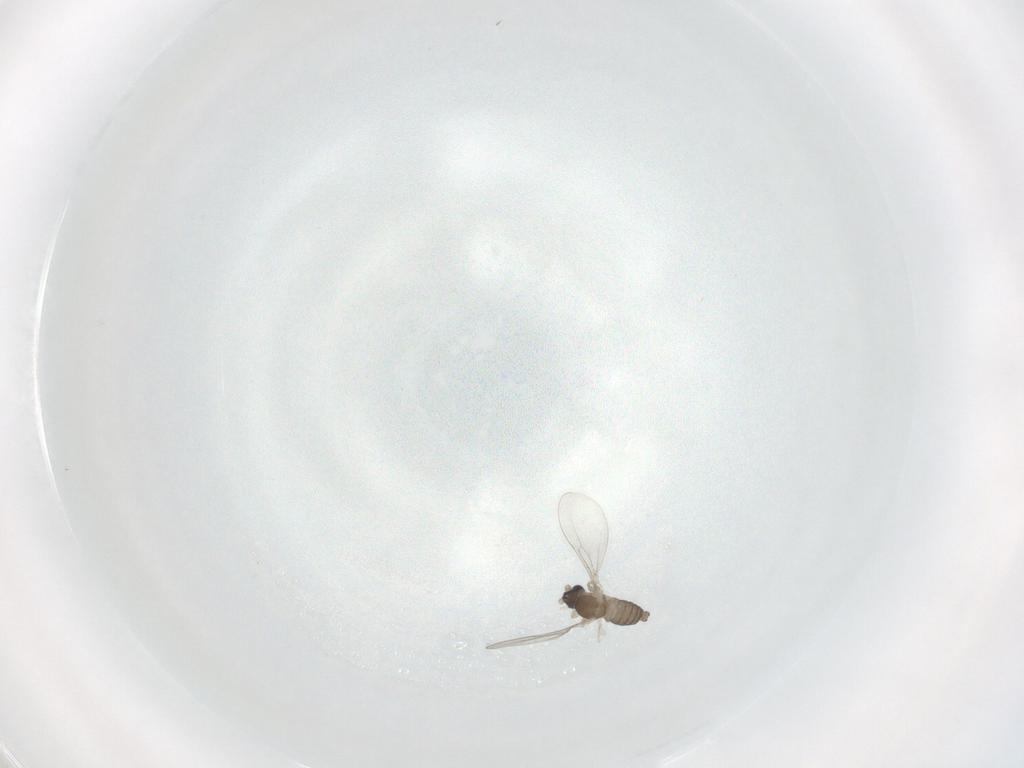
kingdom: Animalia
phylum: Arthropoda
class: Insecta
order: Diptera
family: Cecidomyiidae
